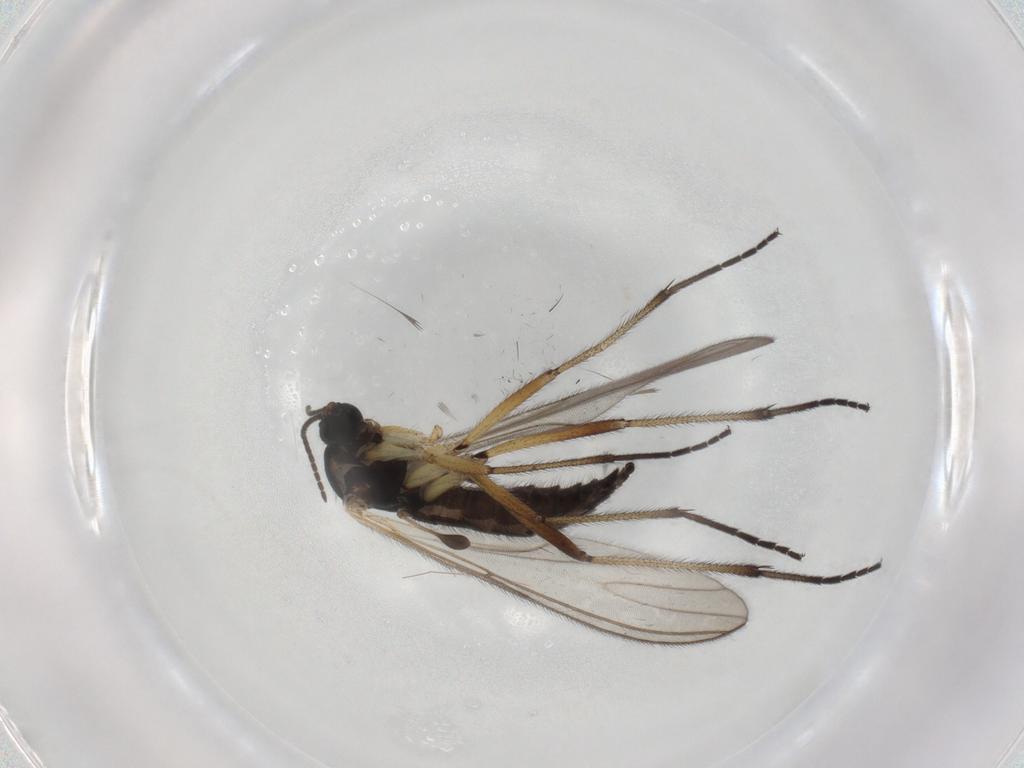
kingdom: Animalia
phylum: Arthropoda
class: Insecta
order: Diptera
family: Sciaridae
